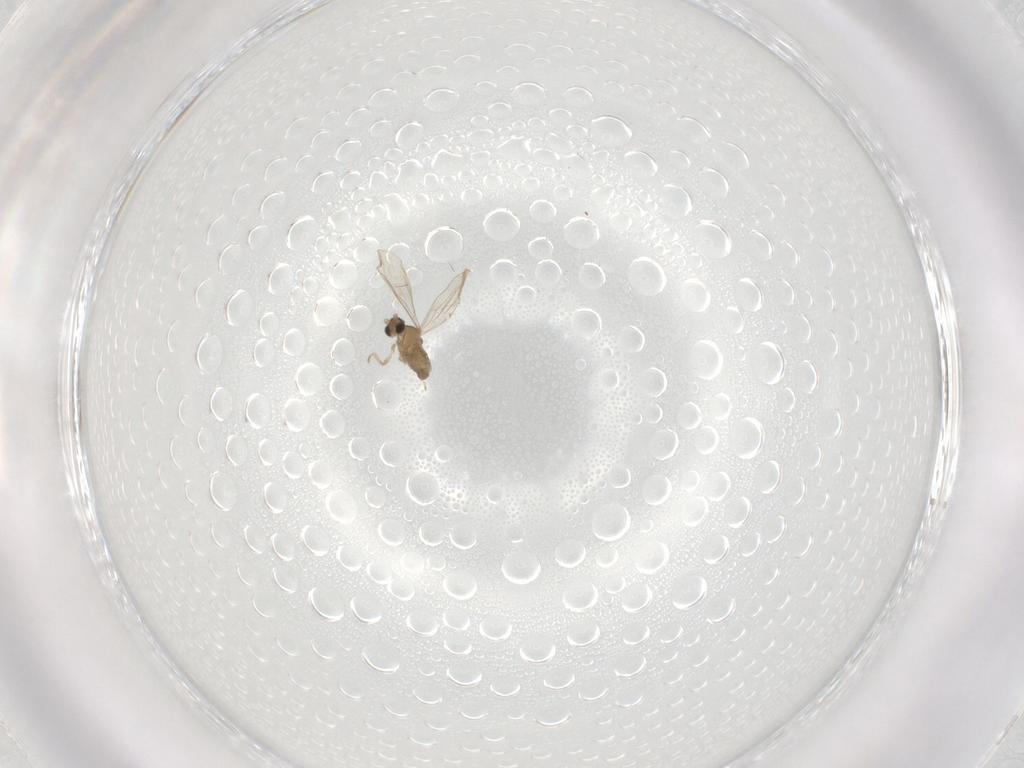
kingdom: Animalia
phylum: Arthropoda
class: Insecta
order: Diptera
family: Cecidomyiidae
